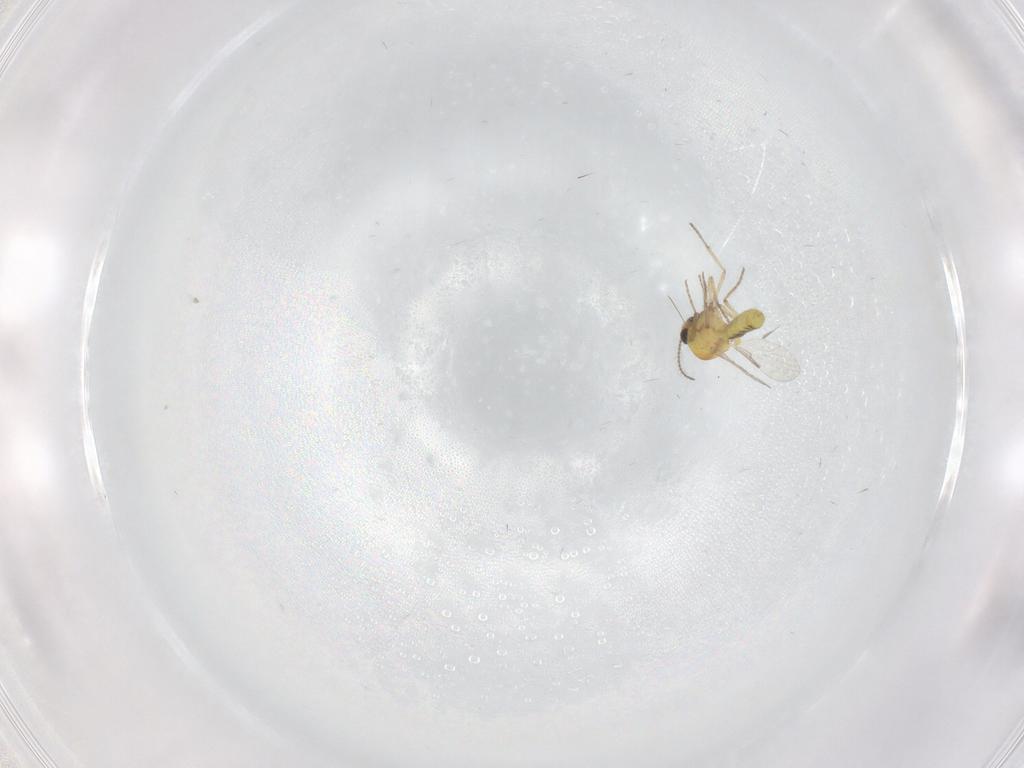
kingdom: Animalia
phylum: Arthropoda
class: Insecta
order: Diptera
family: Ceratopogonidae
